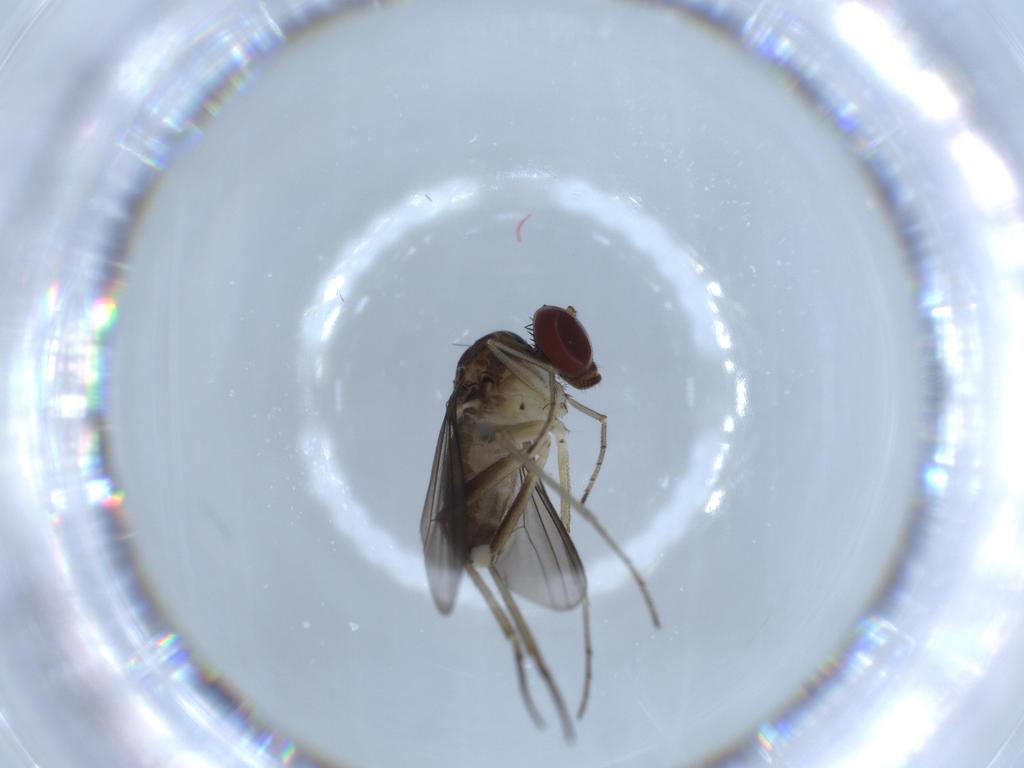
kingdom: Animalia
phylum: Arthropoda
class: Insecta
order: Diptera
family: Dolichopodidae
